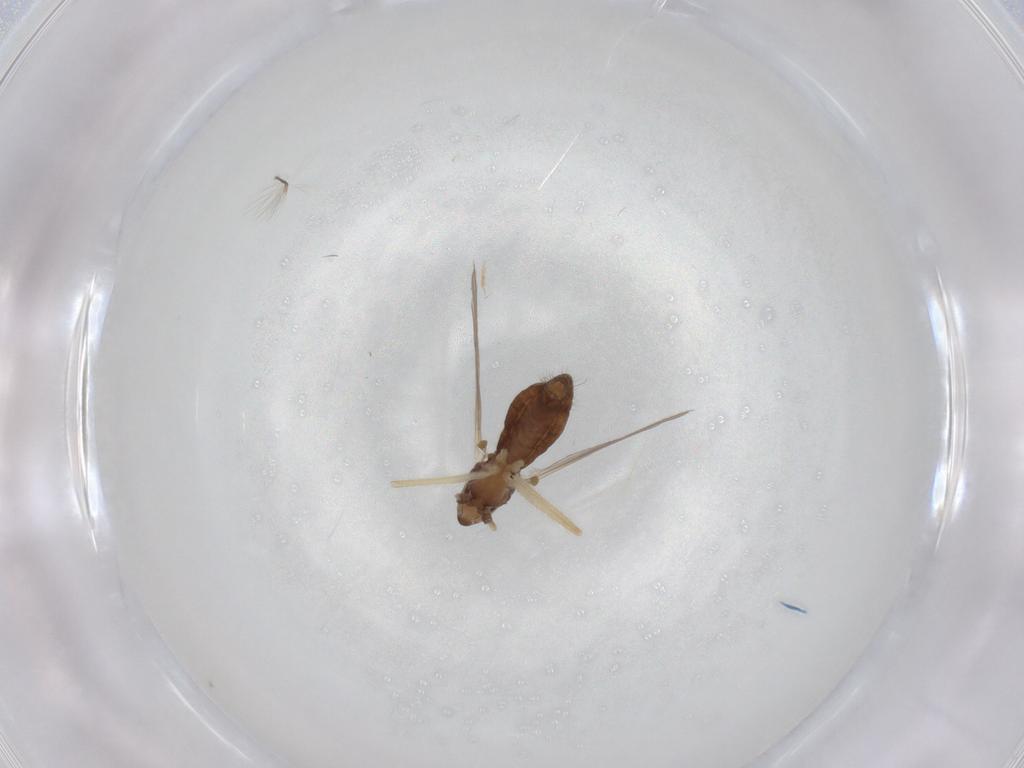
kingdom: Animalia
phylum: Arthropoda
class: Insecta
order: Diptera
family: Chironomidae
